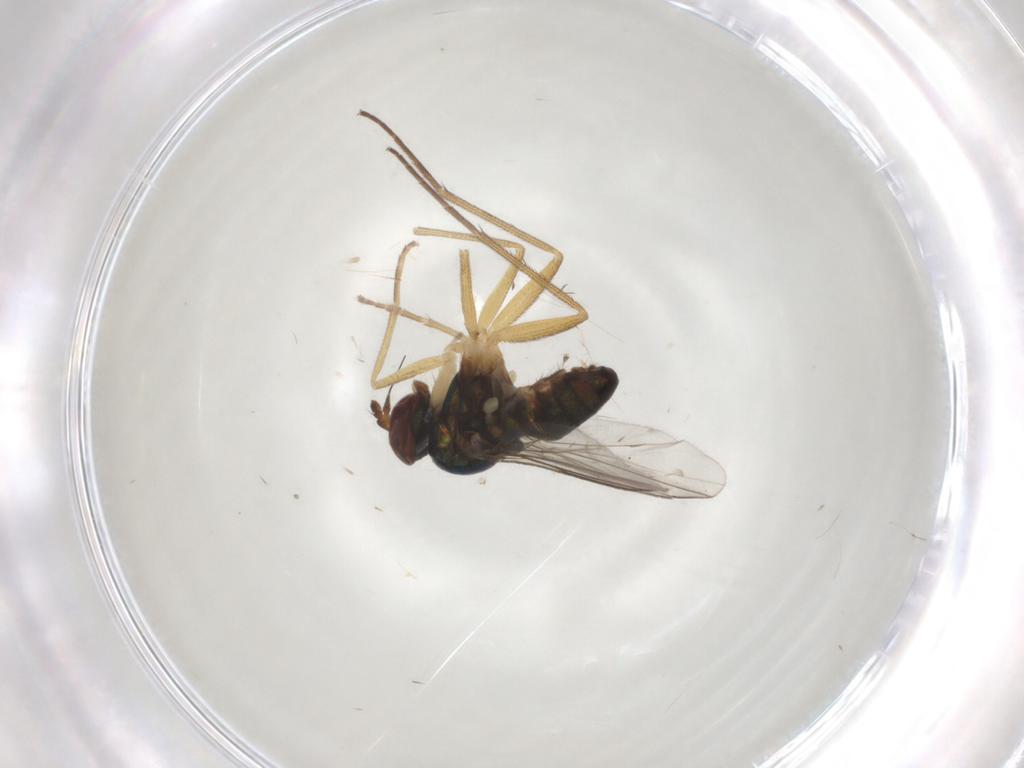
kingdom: Animalia
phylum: Arthropoda
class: Insecta
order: Diptera
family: Dolichopodidae
